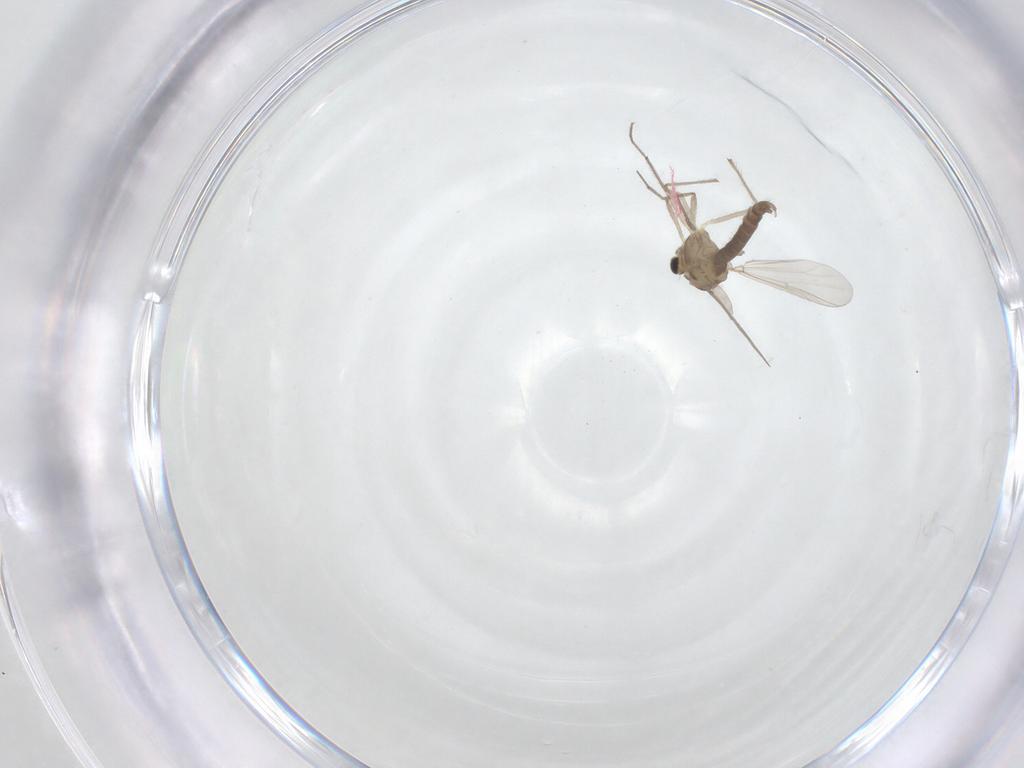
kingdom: Animalia
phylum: Arthropoda
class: Insecta
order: Diptera
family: Chironomidae
